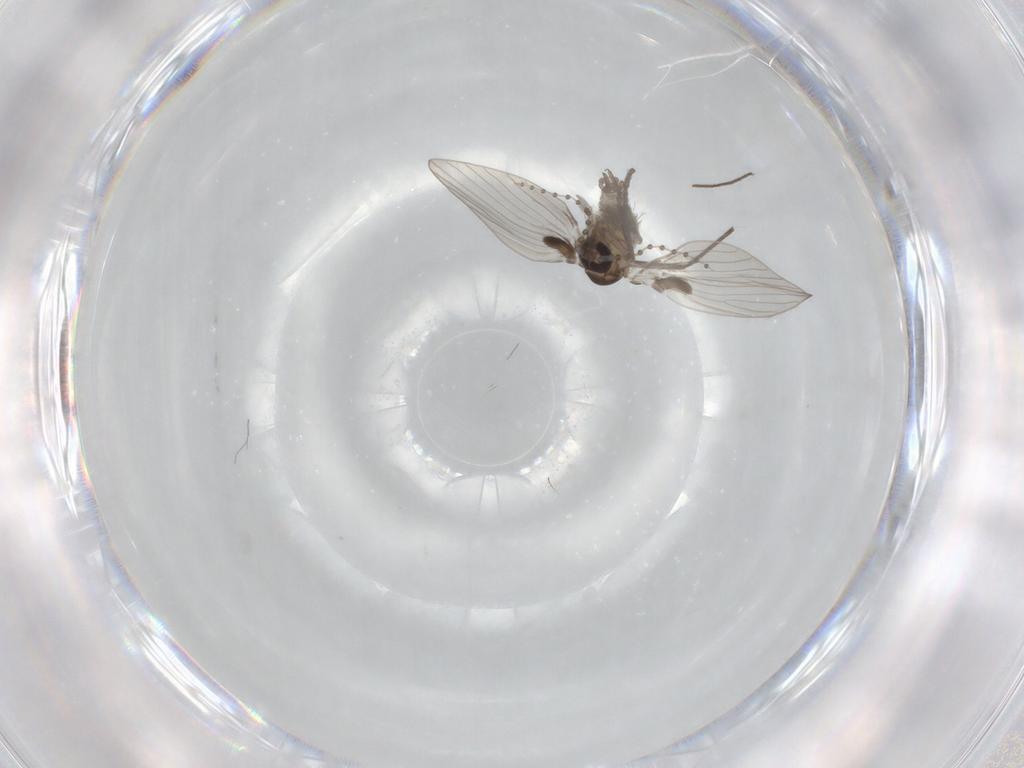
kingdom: Animalia
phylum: Arthropoda
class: Insecta
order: Diptera
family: Psychodidae
